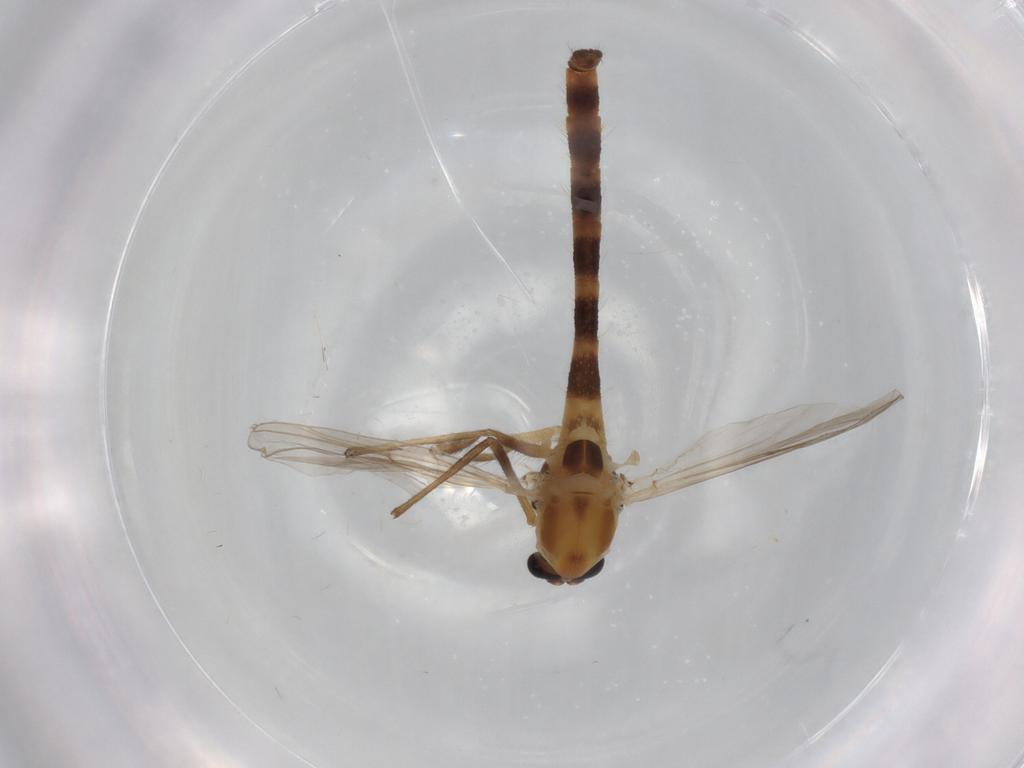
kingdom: Animalia
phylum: Arthropoda
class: Insecta
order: Diptera
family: Chironomidae
